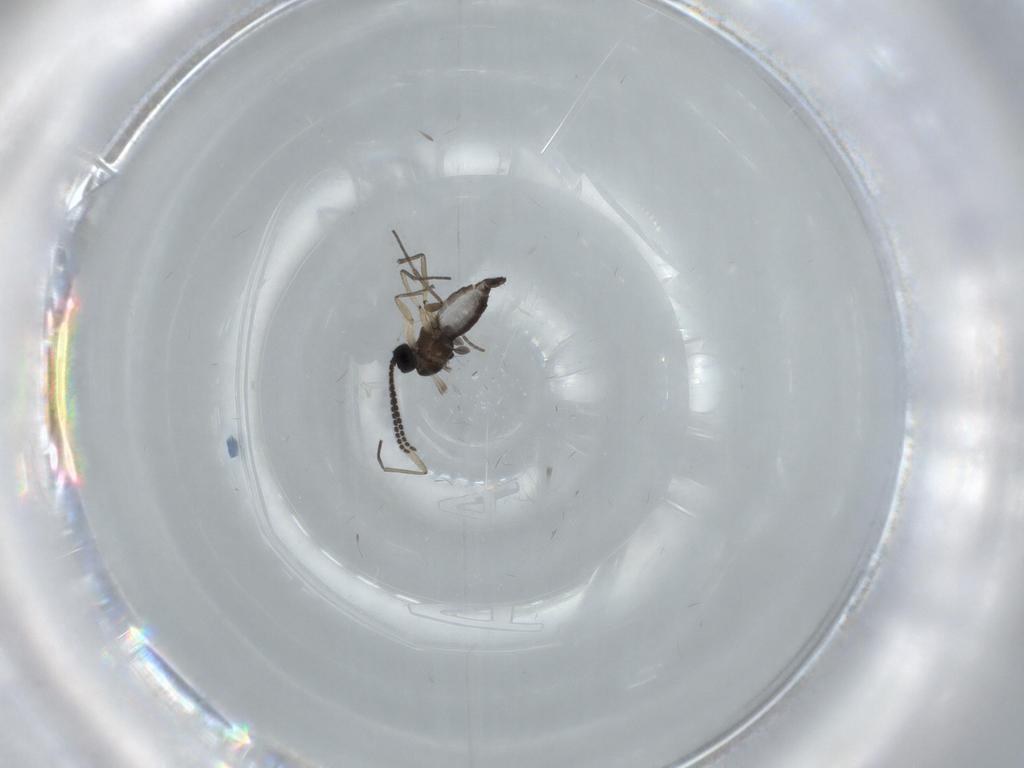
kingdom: Animalia
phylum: Arthropoda
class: Insecta
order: Diptera
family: Sciaridae
